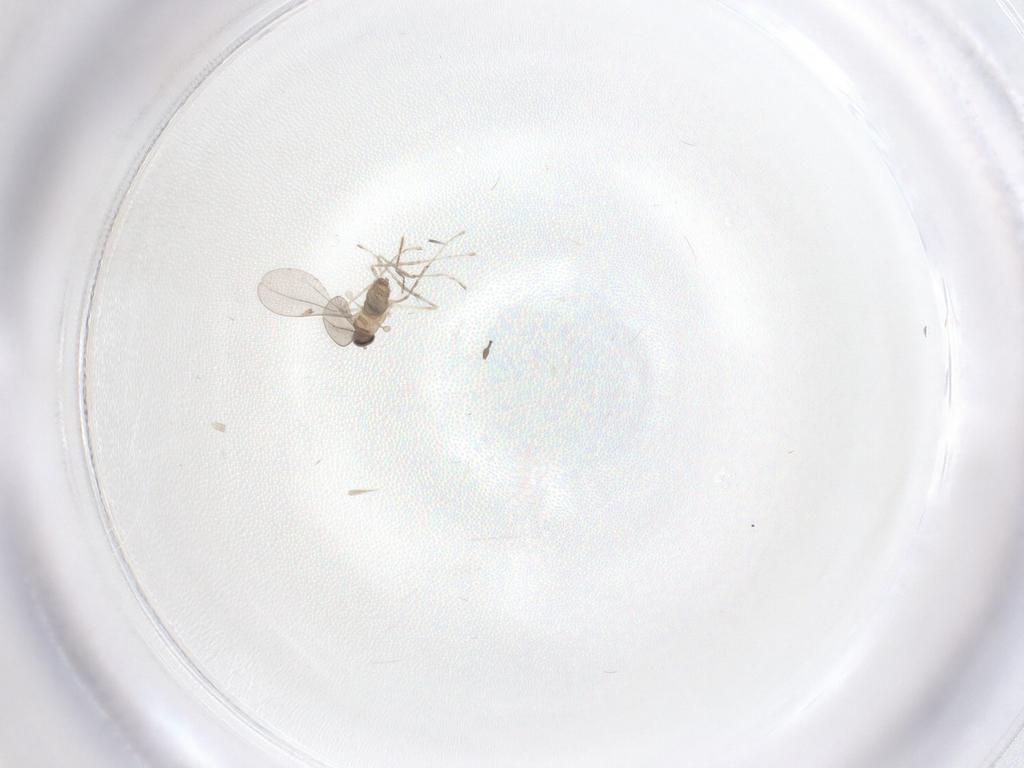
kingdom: Animalia
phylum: Arthropoda
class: Insecta
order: Diptera
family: Cecidomyiidae
